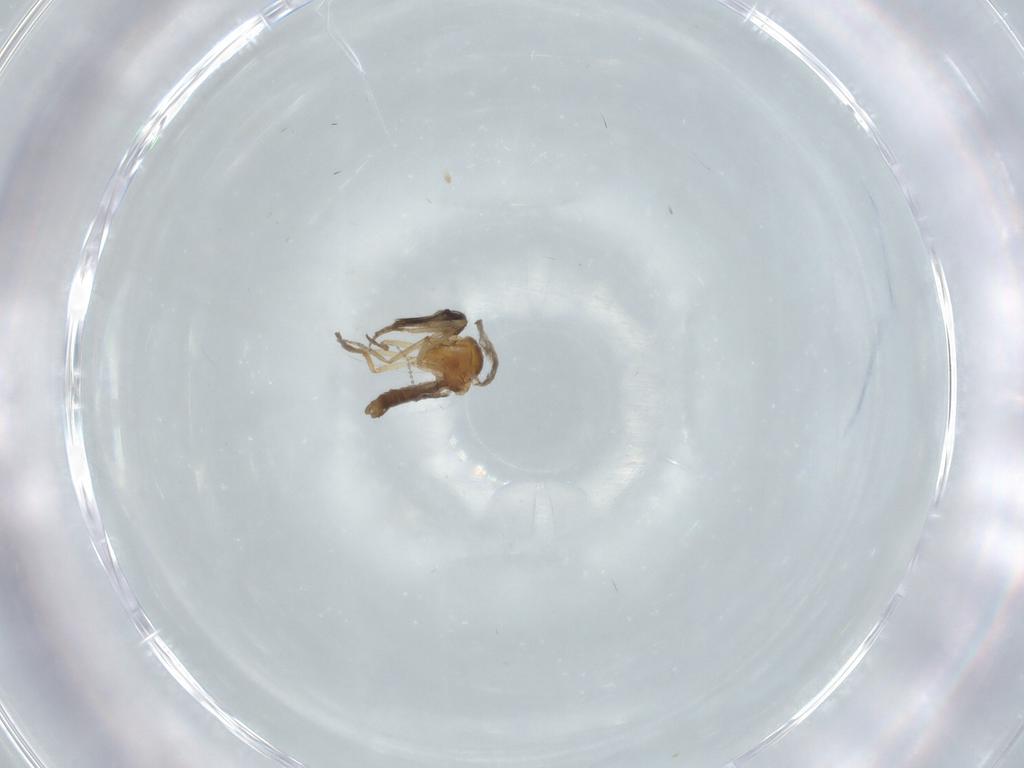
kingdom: Animalia
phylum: Arthropoda
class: Insecta
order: Diptera
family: Ceratopogonidae
